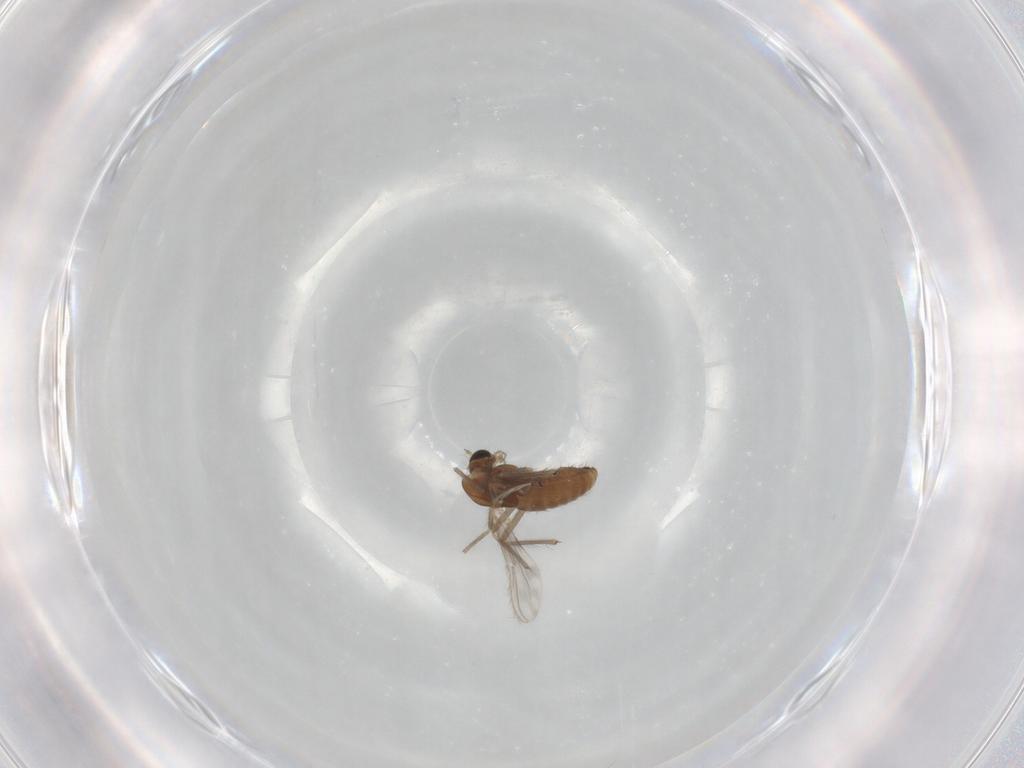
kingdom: Animalia
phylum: Arthropoda
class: Insecta
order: Diptera
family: Chironomidae
